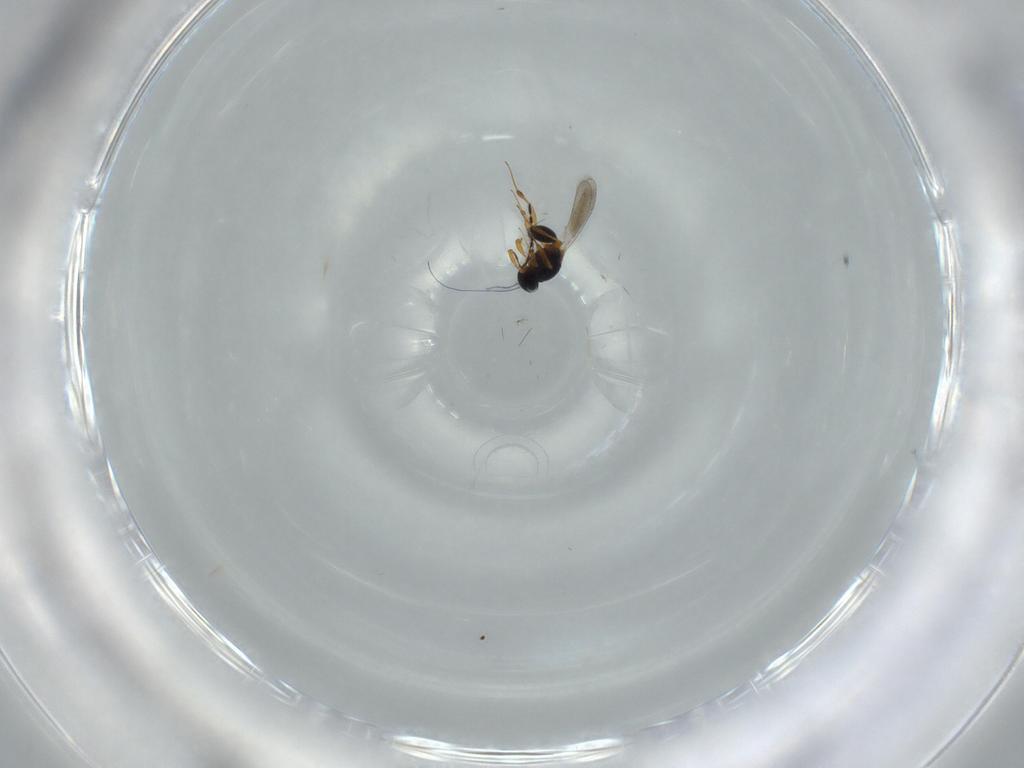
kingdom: Animalia
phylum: Arthropoda
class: Insecta
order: Hymenoptera
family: Platygastridae
